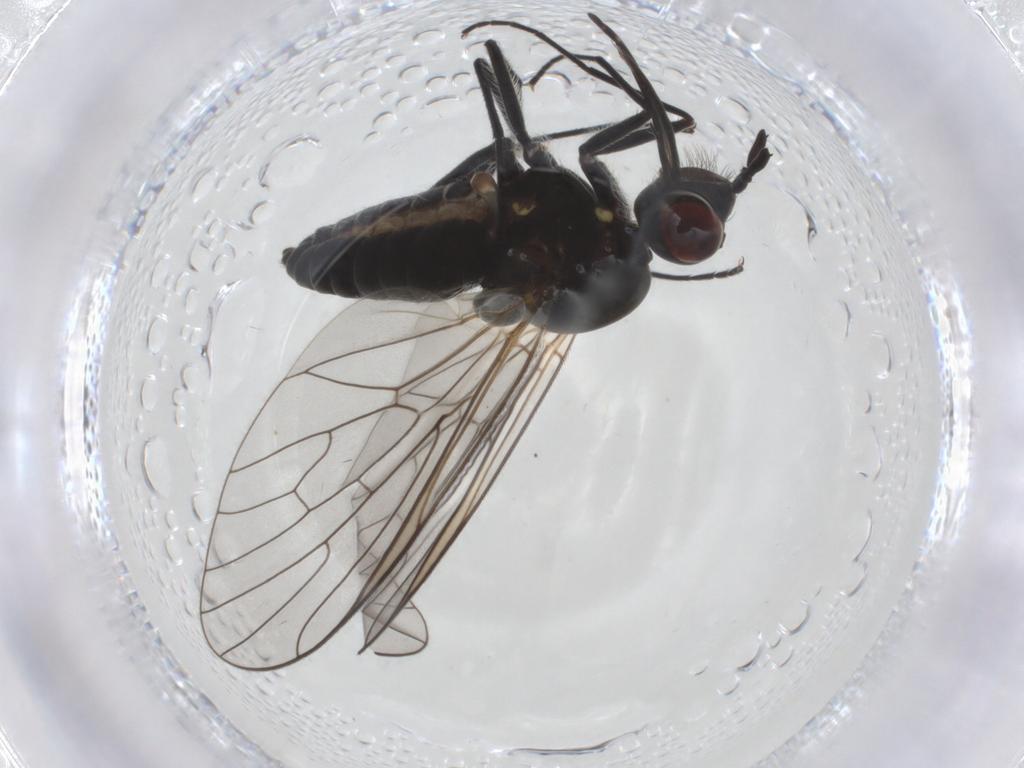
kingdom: Animalia
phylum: Arthropoda
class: Insecta
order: Diptera
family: Bombyliidae
